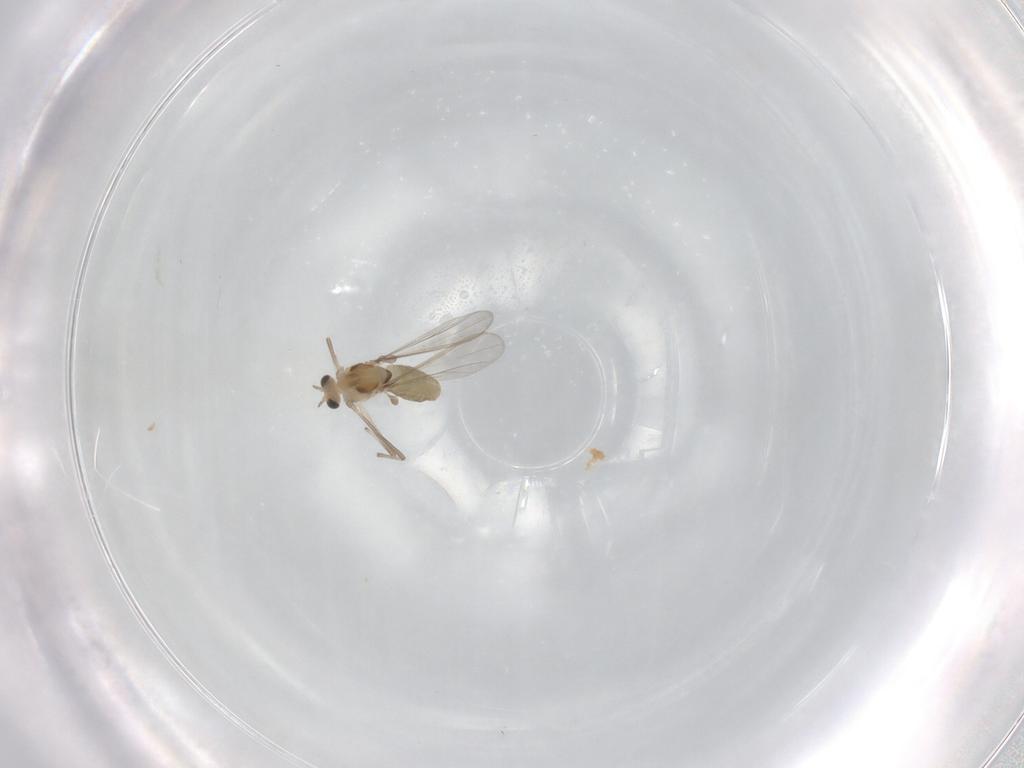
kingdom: Animalia
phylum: Arthropoda
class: Insecta
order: Diptera
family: Chironomidae
